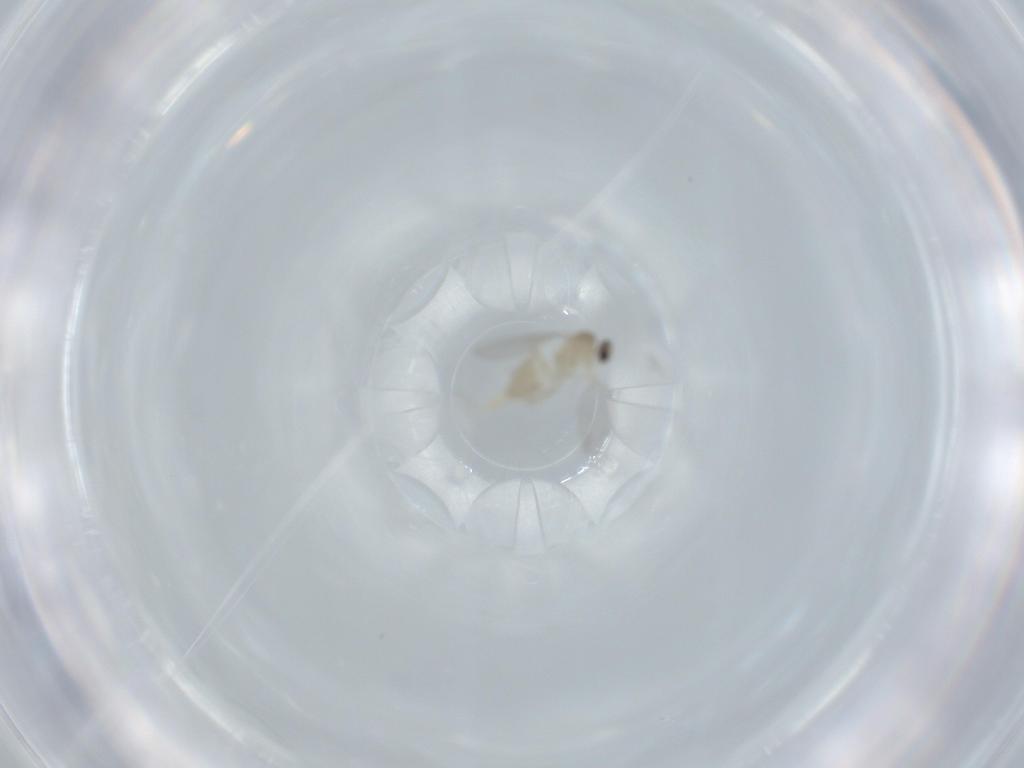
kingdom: Animalia
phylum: Arthropoda
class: Insecta
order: Diptera
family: Cecidomyiidae
